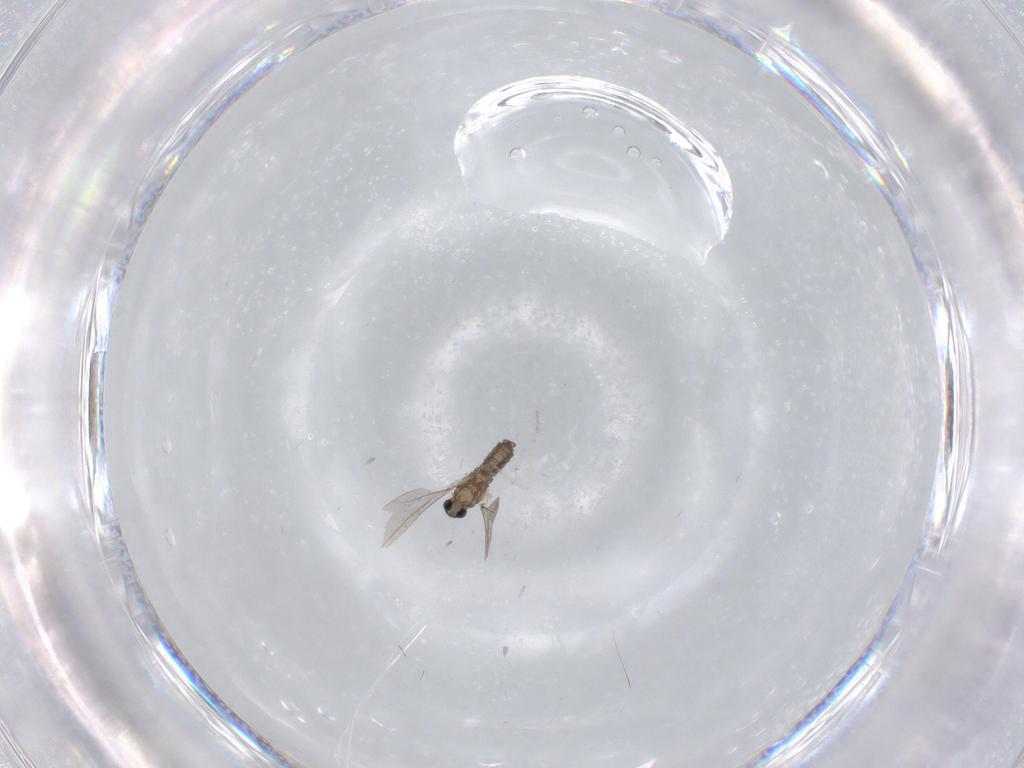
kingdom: Animalia
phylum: Arthropoda
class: Insecta
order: Diptera
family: Cecidomyiidae
